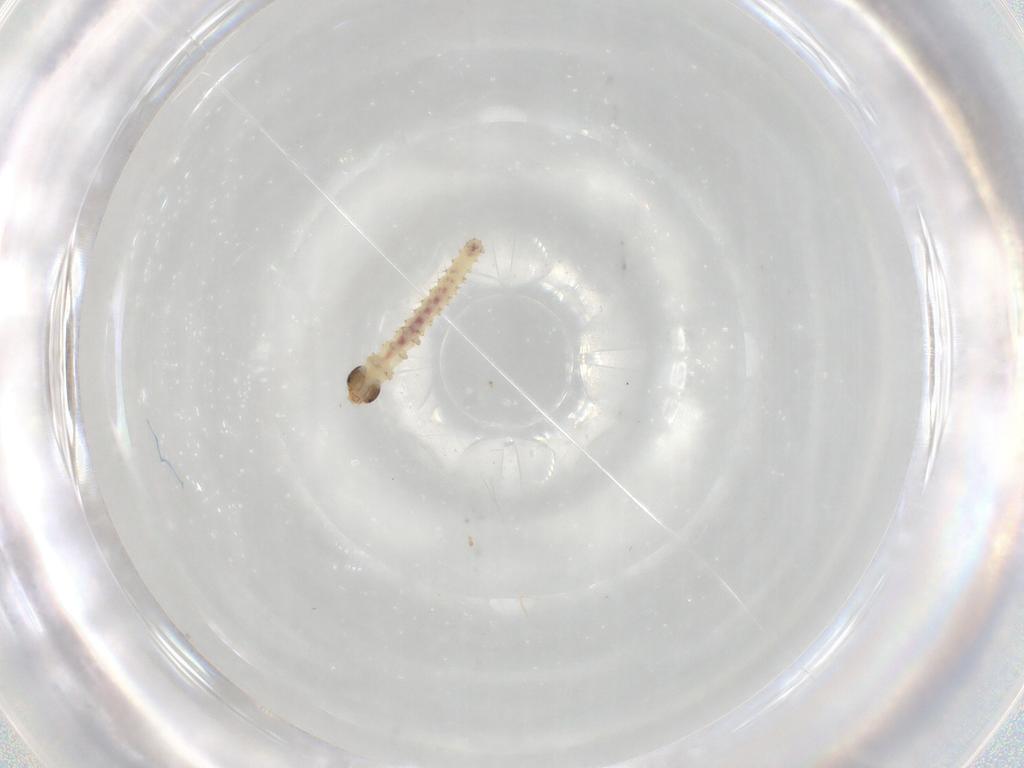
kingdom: Animalia
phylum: Arthropoda
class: Insecta
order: Lepidoptera
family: Crambidae
